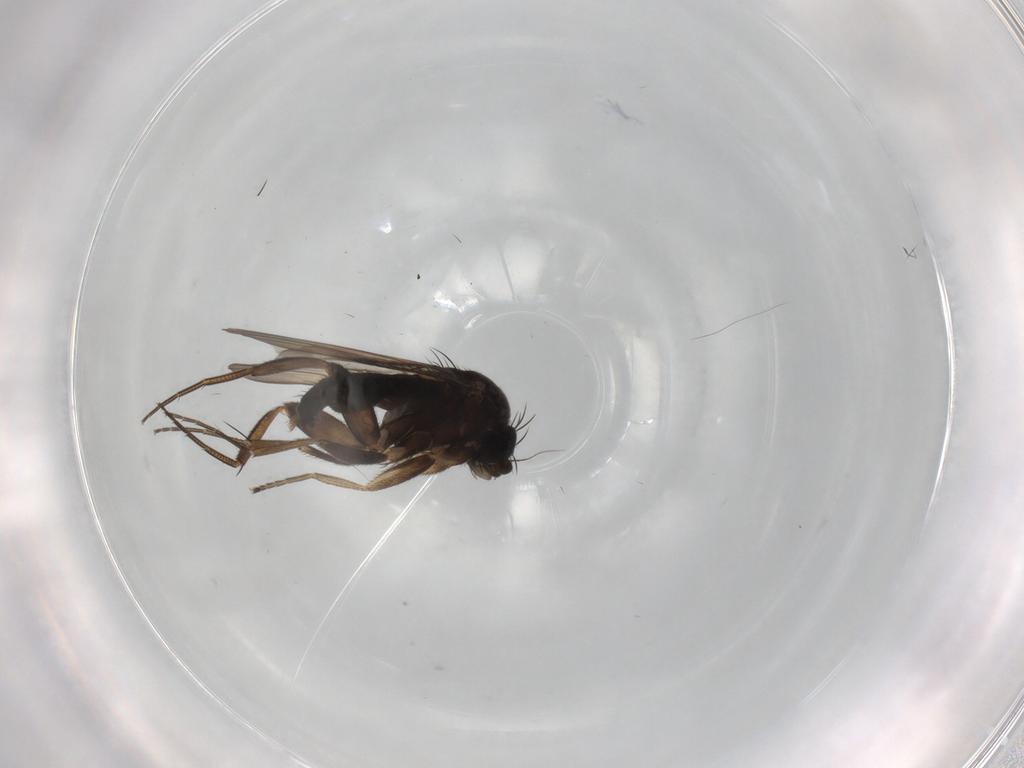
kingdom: Animalia
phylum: Arthropoda
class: Insecta
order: Diptera
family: Phoridae
